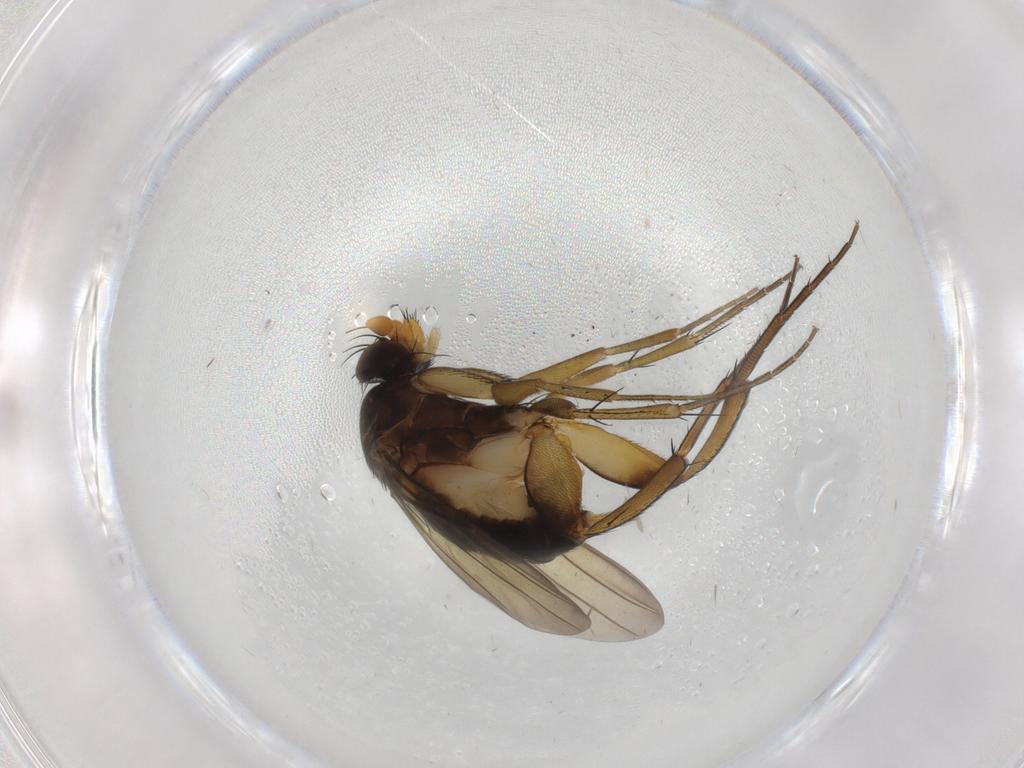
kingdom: Animalia
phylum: Arthropoda
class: Insecta
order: Diptera
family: Phoridae
